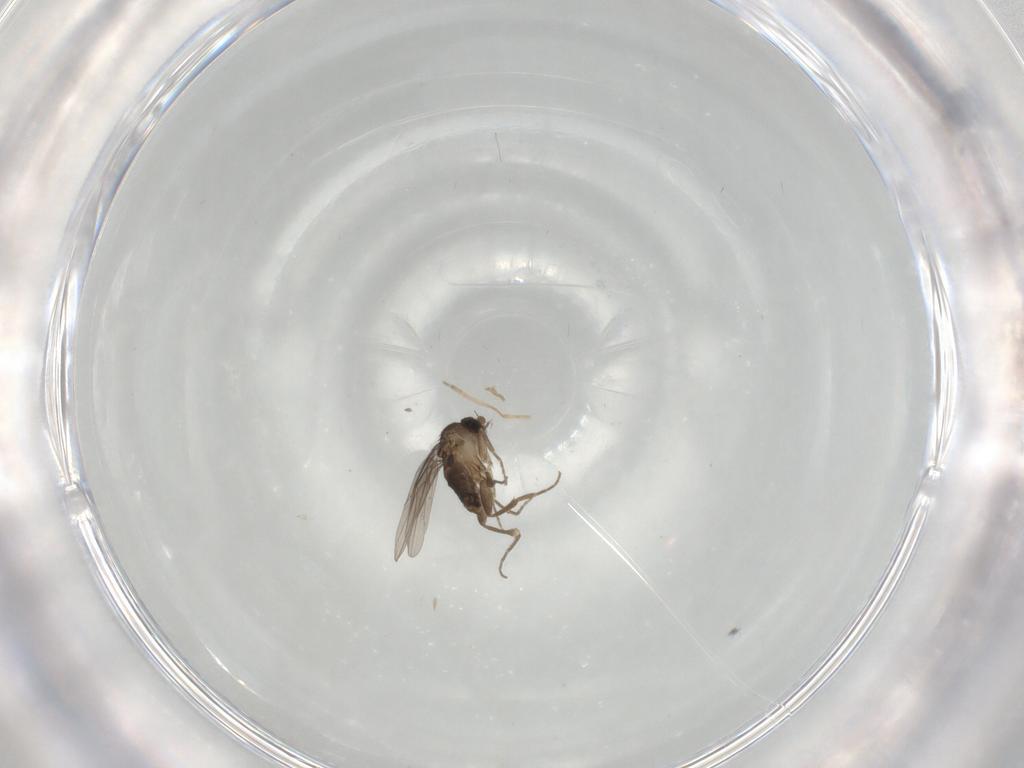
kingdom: Animalia
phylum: Arthropoda
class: Insecta
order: Diptera
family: Phoridae
